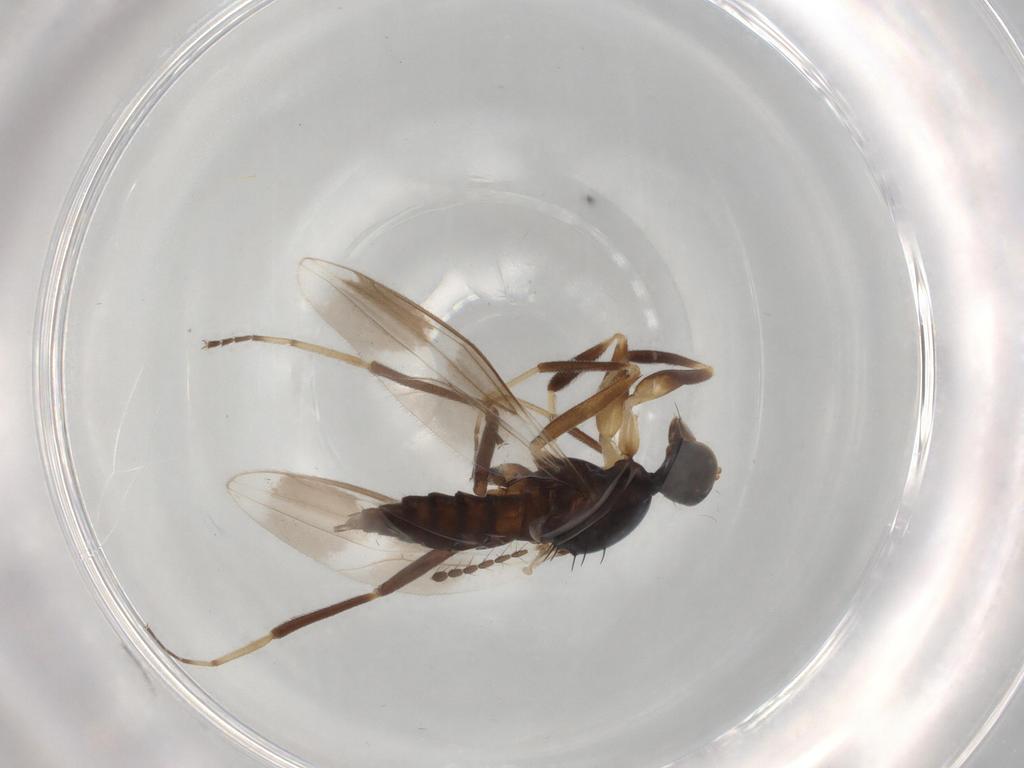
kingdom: Animalia
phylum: Arthropoda
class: Insecta
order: Diptera
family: Hybotidae
